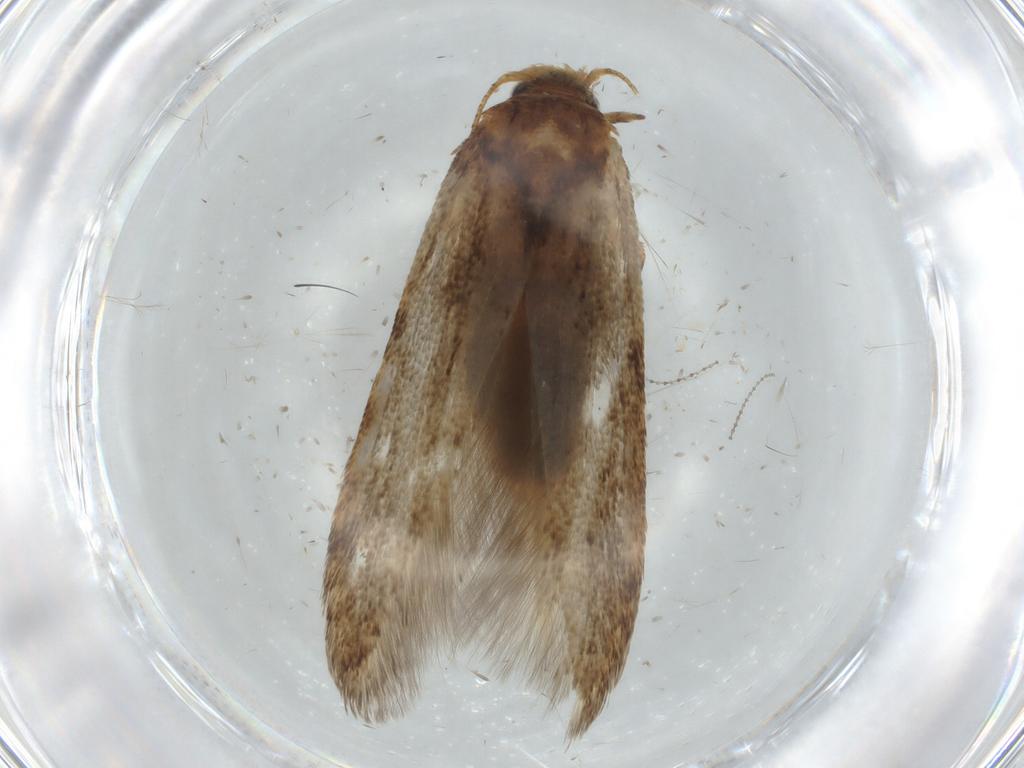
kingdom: Animalia
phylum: Arthropoda
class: Insecta
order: Lepidoptera
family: Blastobasidae
